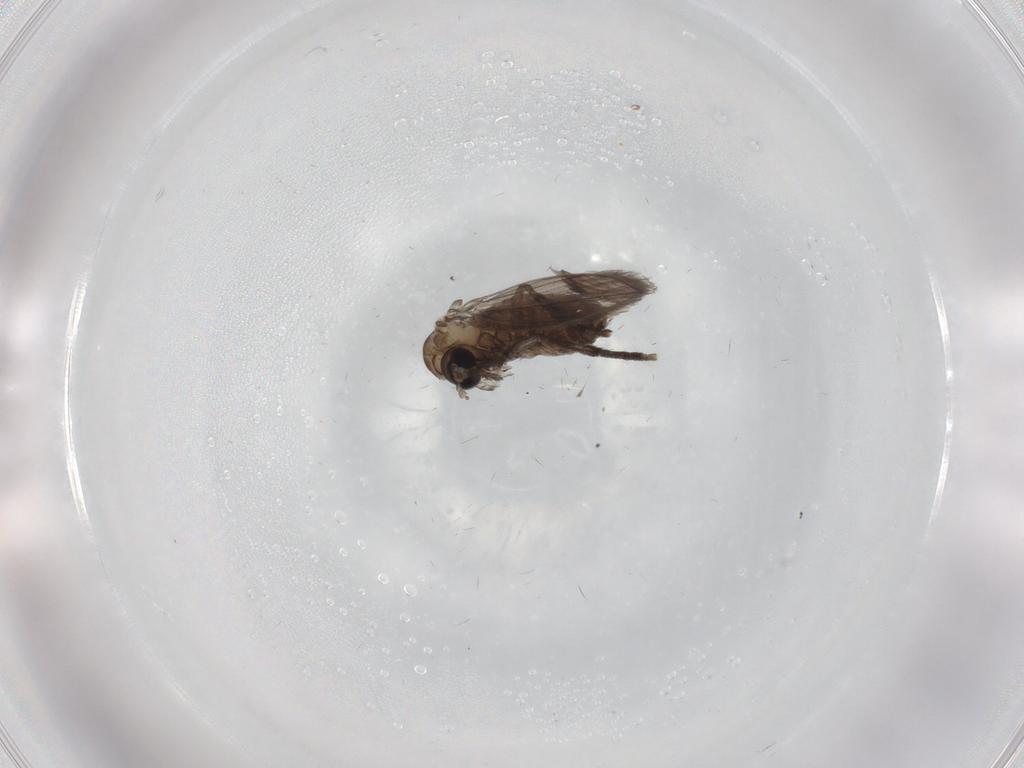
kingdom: Animalia
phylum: Arthropoda
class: Insecta
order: Diptera
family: Psychodidae
